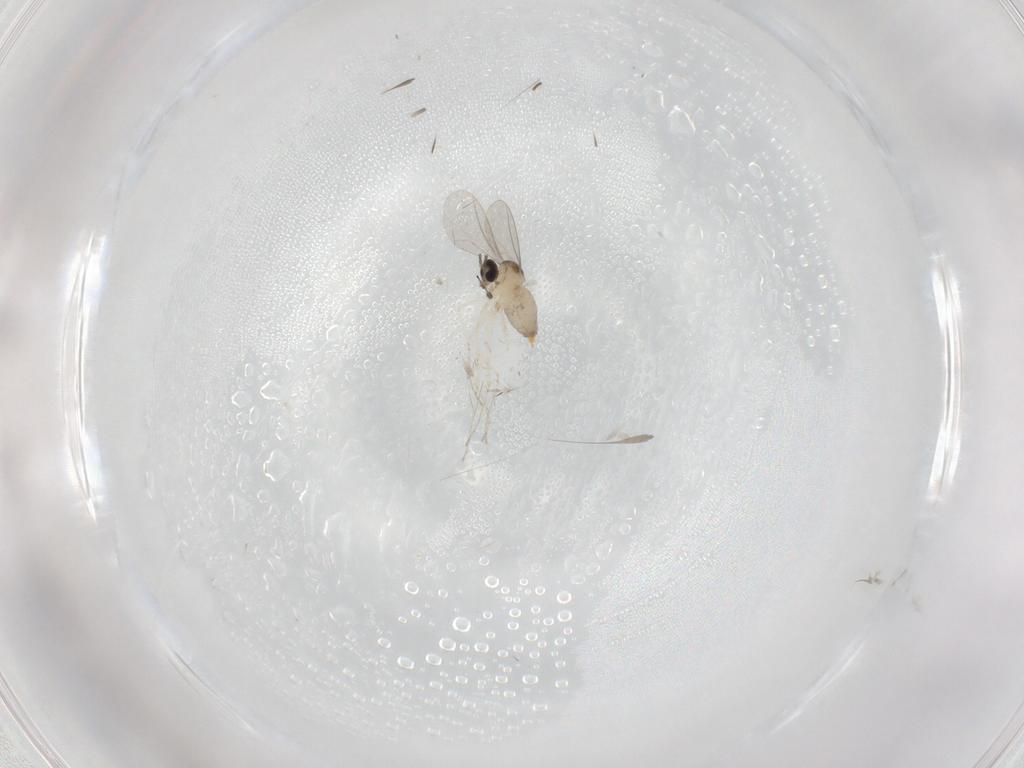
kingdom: Animalia
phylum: Arthropoda
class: Insecta
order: Diptera
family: Cecidomyiidae
